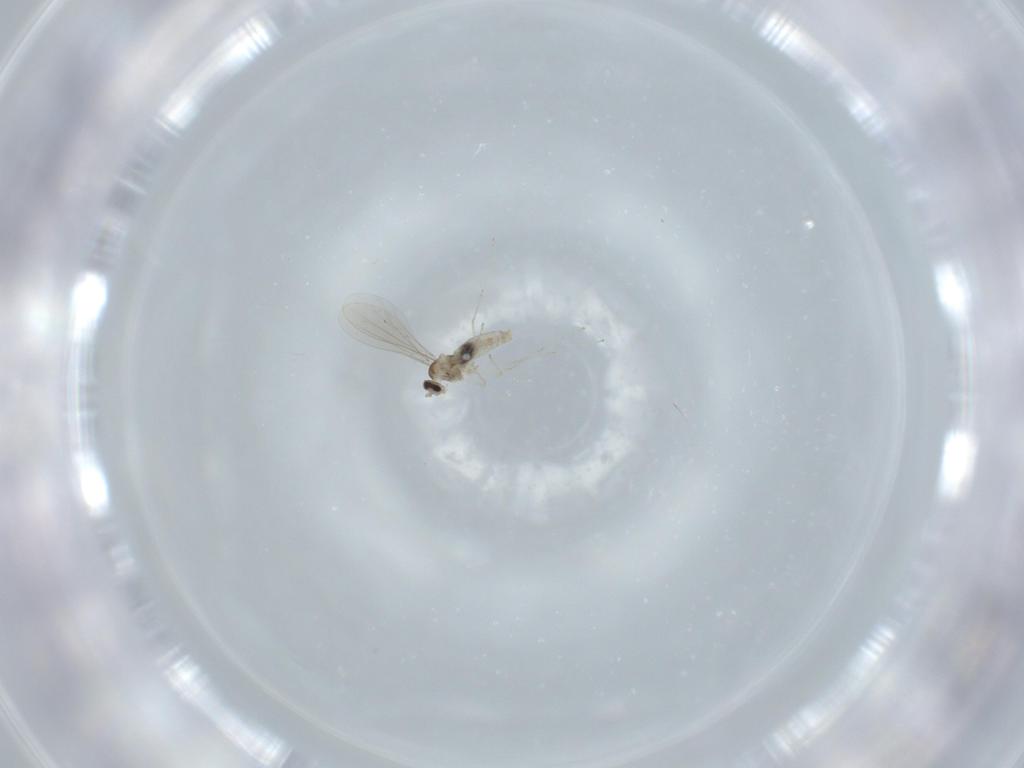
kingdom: Animalia
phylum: Arthropoda
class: Insecta
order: Diptera
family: Cecidomyiidae
